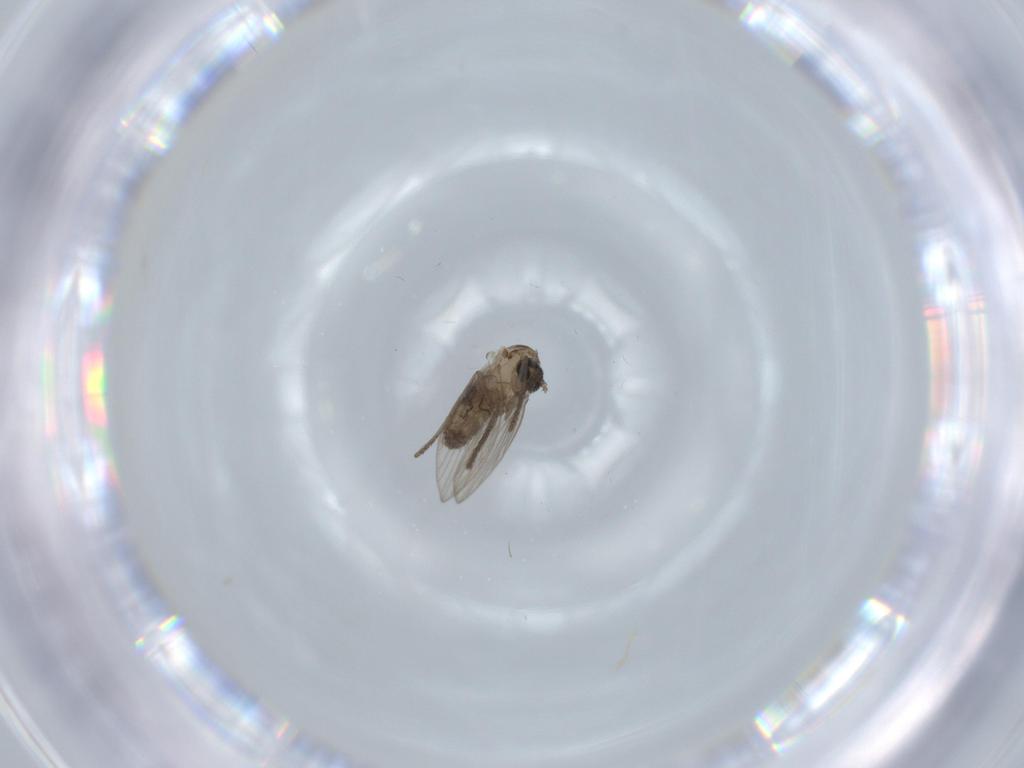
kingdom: Animalia
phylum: Arthropoda
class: Insecta
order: Diptera
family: Psychodidae
